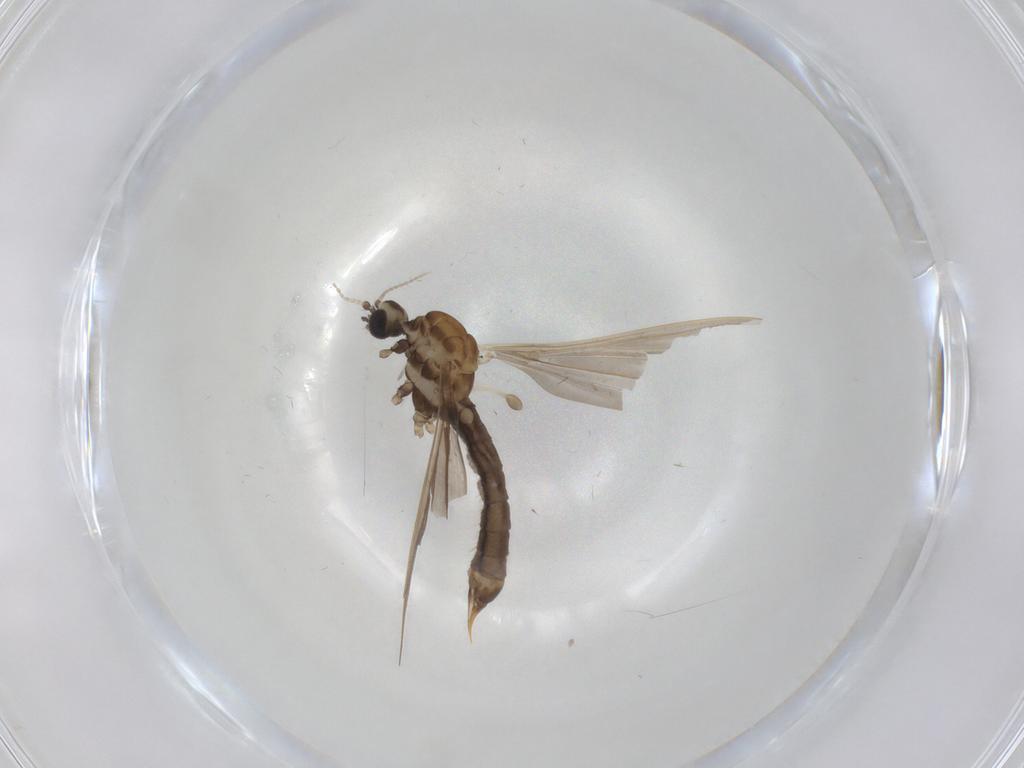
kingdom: Animalia
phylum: Arthropoda
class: Insecta
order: Diptera
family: Limoniidae
